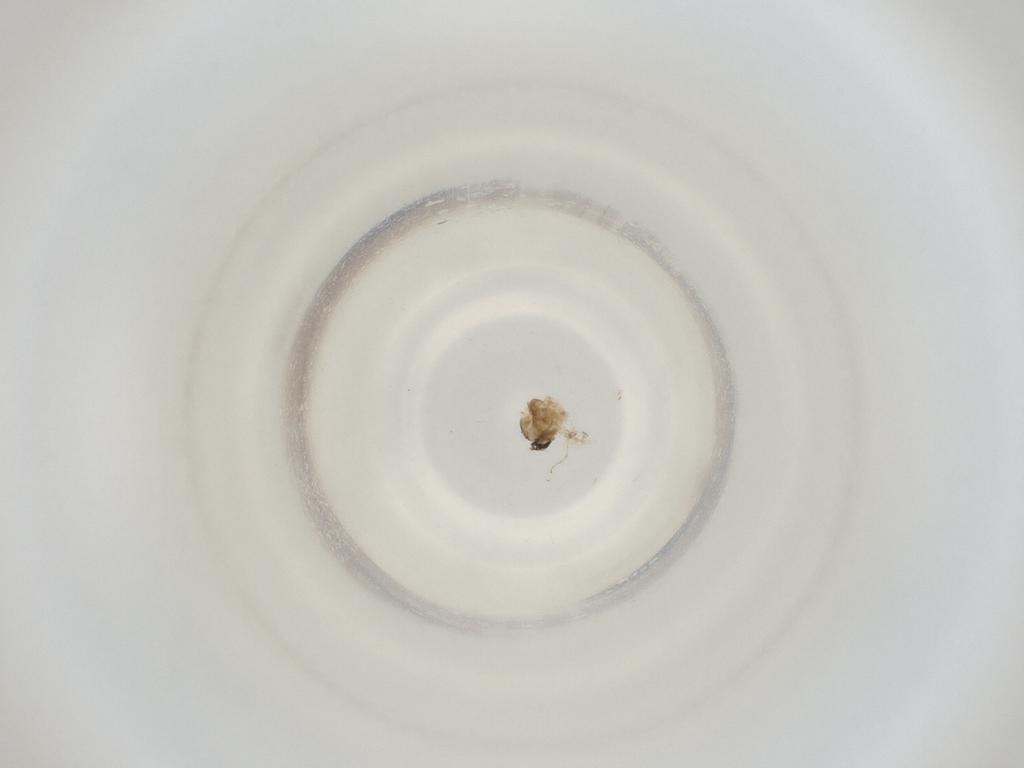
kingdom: Animalia
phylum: Arthropoda
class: Insecta
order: Diptera
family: Cecidomyiidae
